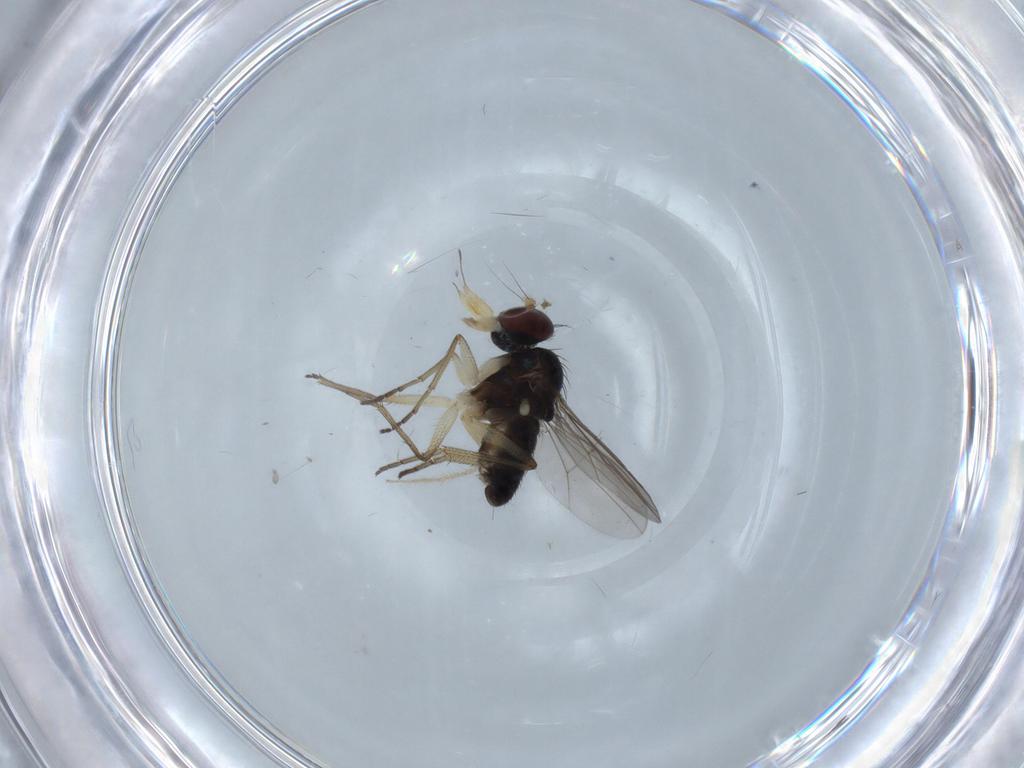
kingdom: Animalia
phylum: Arthropoda
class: Insecta
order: Diptera
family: Dolichopodidae
